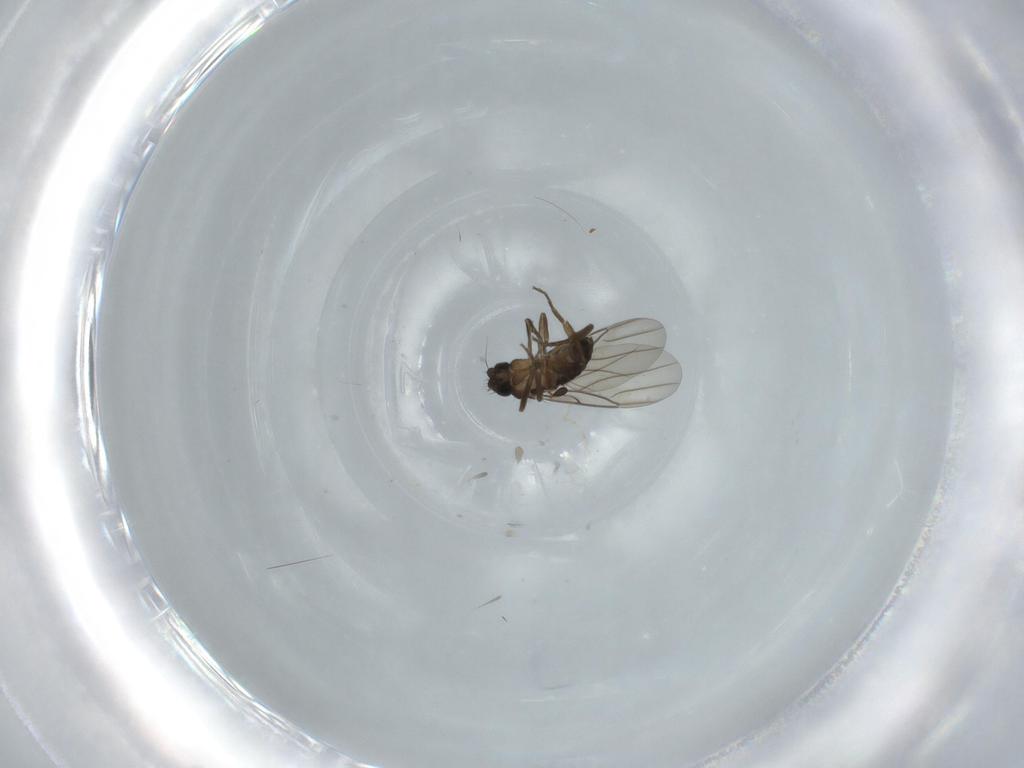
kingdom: Animalia
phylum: Arthropoda
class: Insecta
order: Diptera
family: Phoridae
